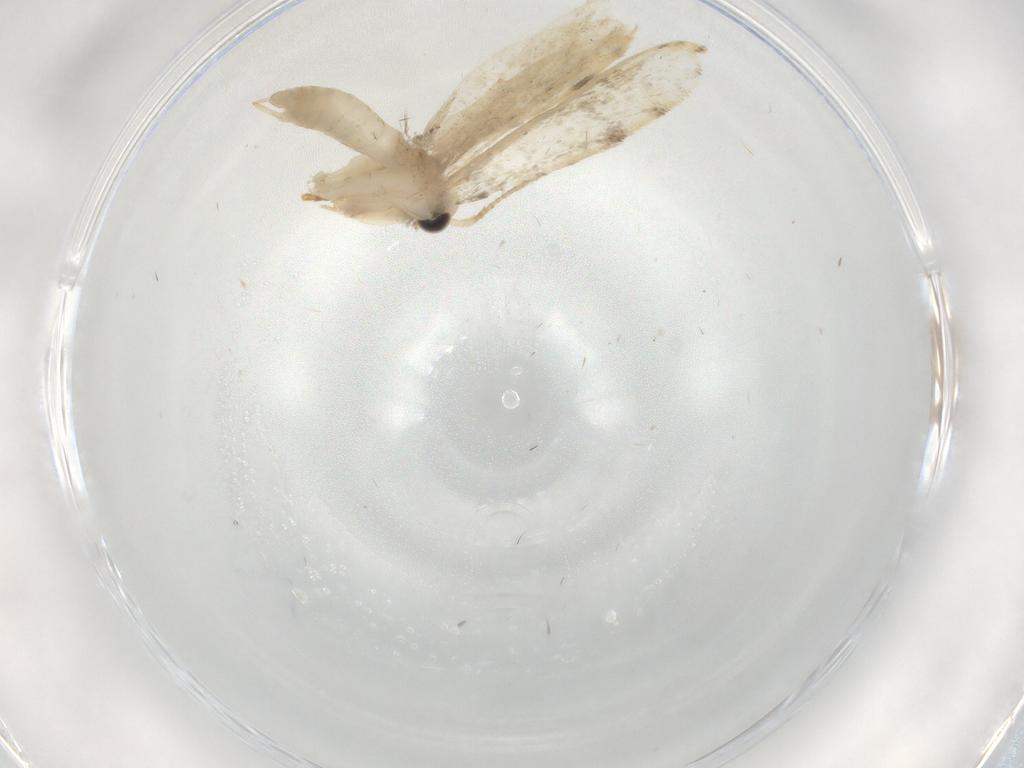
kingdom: Animalia
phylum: Arthropoda
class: Insecta
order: Lepidoptera
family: Psychidae
